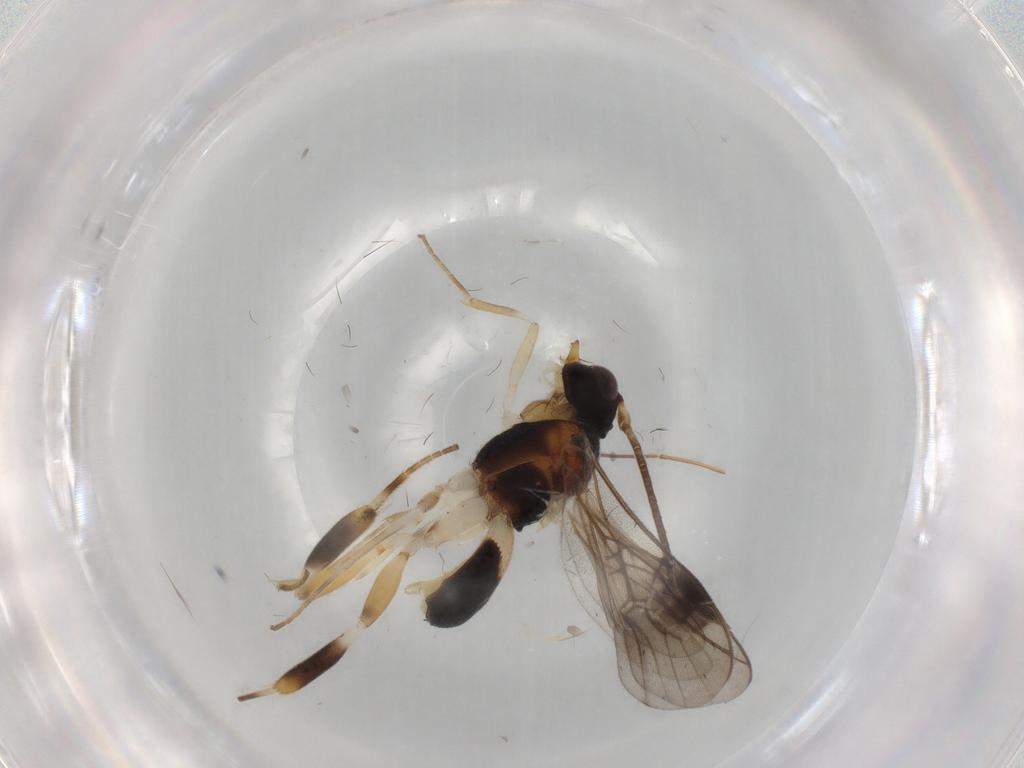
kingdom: Animalia
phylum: Arthropoda
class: Insecta
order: Hymenoptera
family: Braconidae
